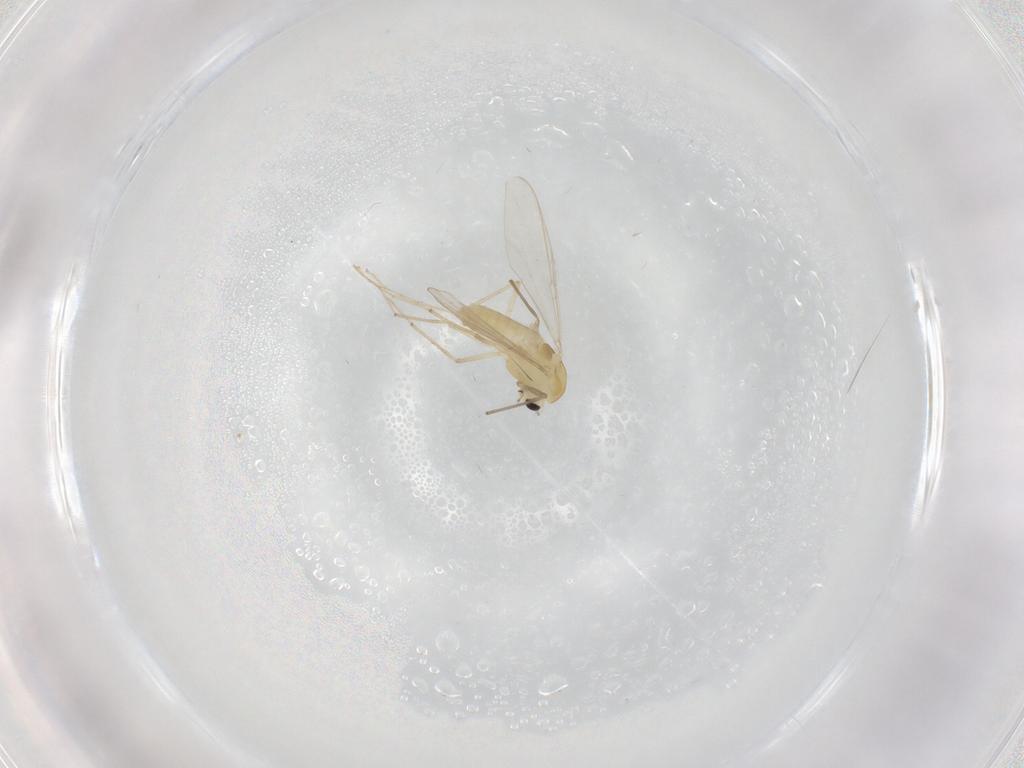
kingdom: Animalia
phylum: Arthropoda
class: Insecta
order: Diptera
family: Chironomidae
